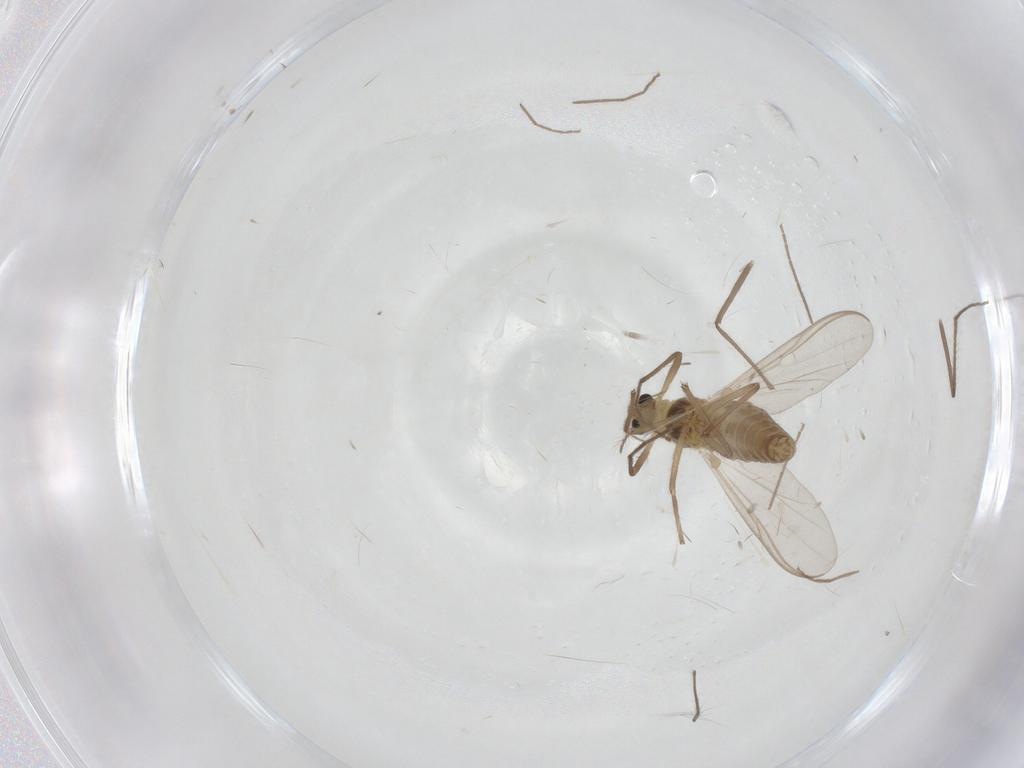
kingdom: Animalia
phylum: Arthropoda
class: Insecta
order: Diptera
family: Chironomidae
